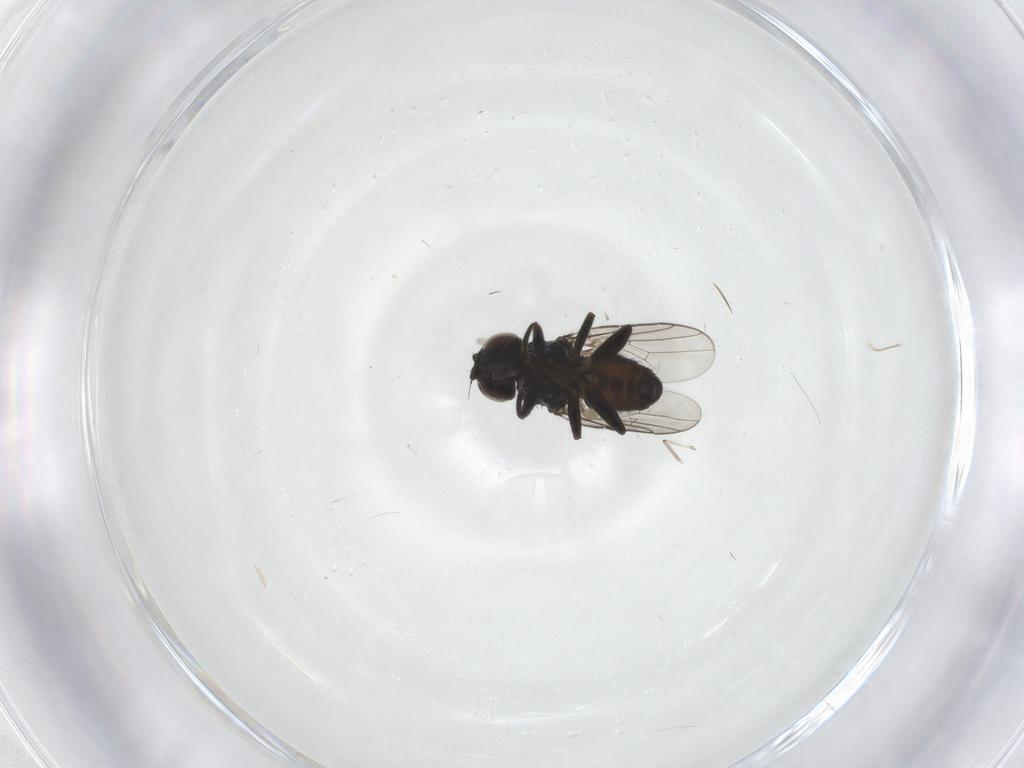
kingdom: Animalia
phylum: Arthropoda
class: Insecta
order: Diptera
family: Chloropidae
